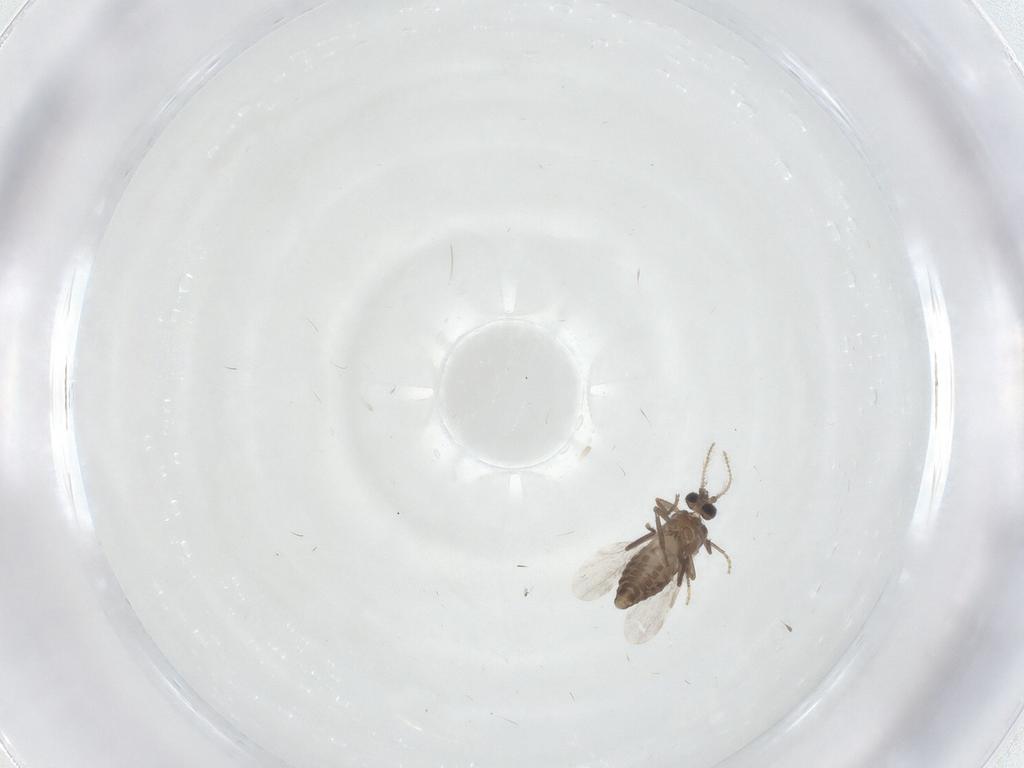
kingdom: Animalia
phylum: Arthropoda
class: Insecta
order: Diptera
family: Ceratopogonidae
